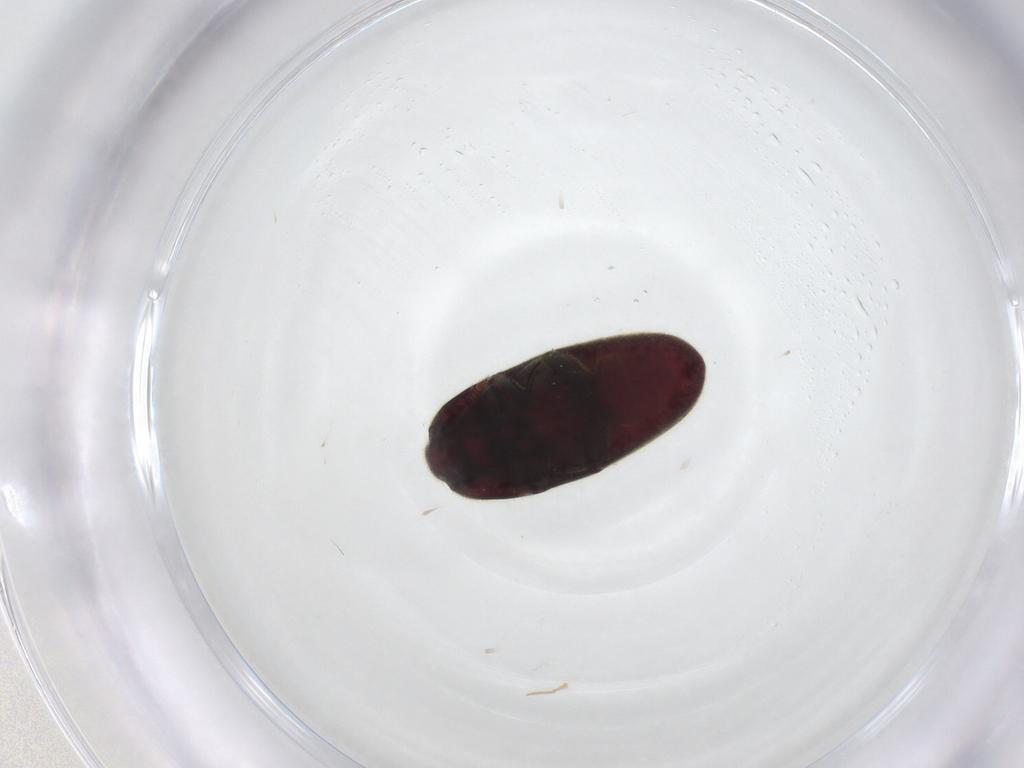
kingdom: Animalia
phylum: Arthropoda
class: Insecta
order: Coleoptera
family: Throscidae
